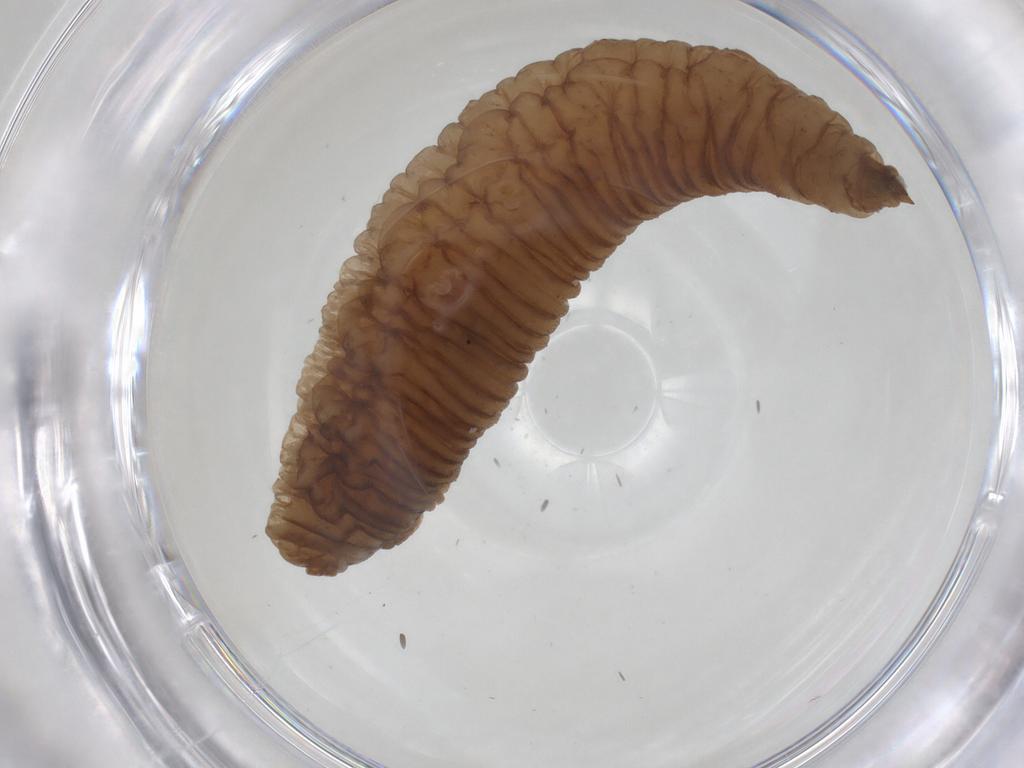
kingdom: Animalia
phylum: Arthropoda
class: Insecta
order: Diptera
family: Syrphidae
